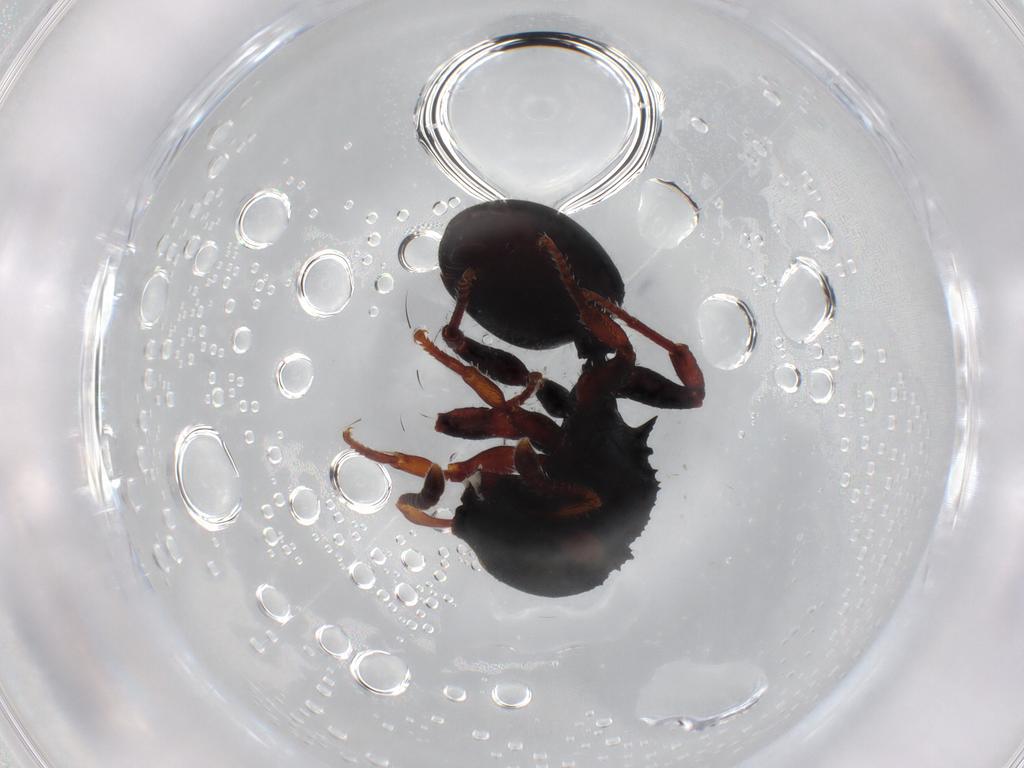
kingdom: Animalia
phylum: Arthropoda
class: Insecta
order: Hymenoptera
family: Formicidae
